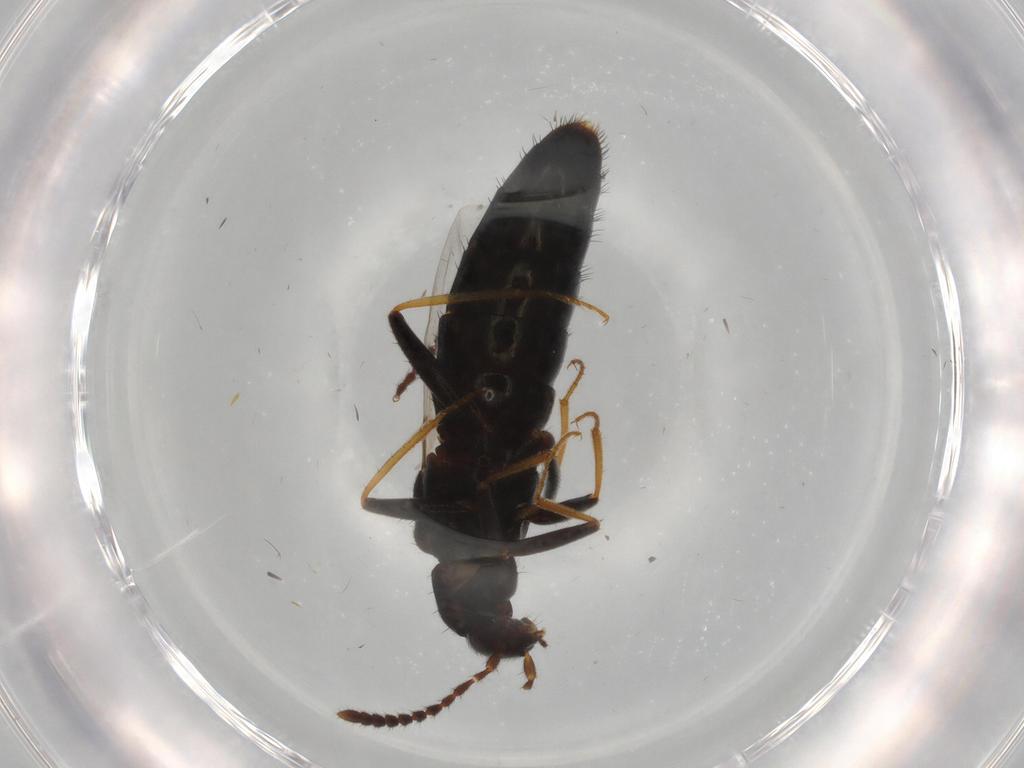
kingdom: Animalia
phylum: Arthropoda
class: Insecta
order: Coleoptera
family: Staphylinidae
